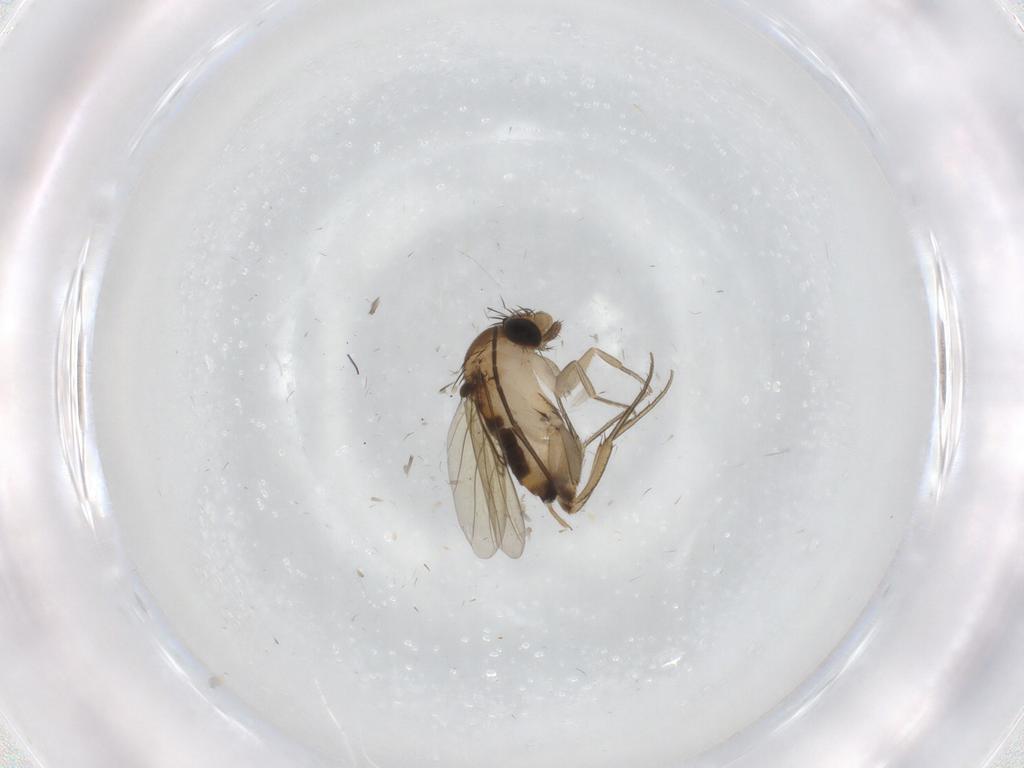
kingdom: Animalia
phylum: Arthropoda
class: Insecta
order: Diptera
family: Phoridae
